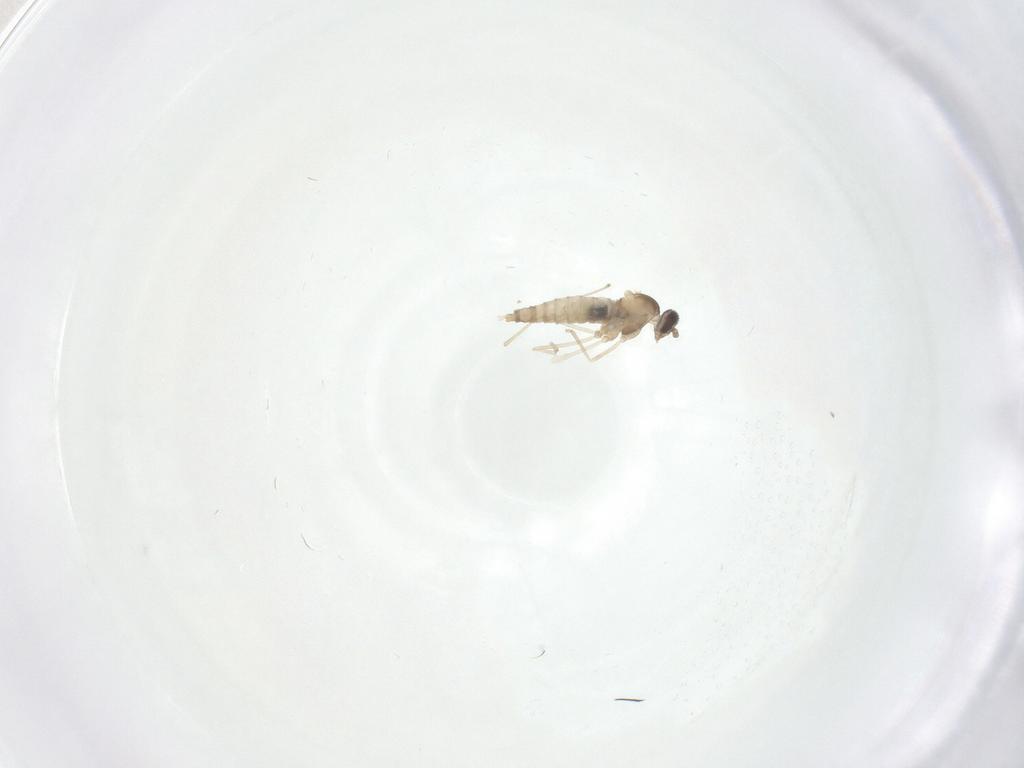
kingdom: Animalia
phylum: Arthropoda
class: Insecta
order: Diptera
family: Cecidomyiidae
